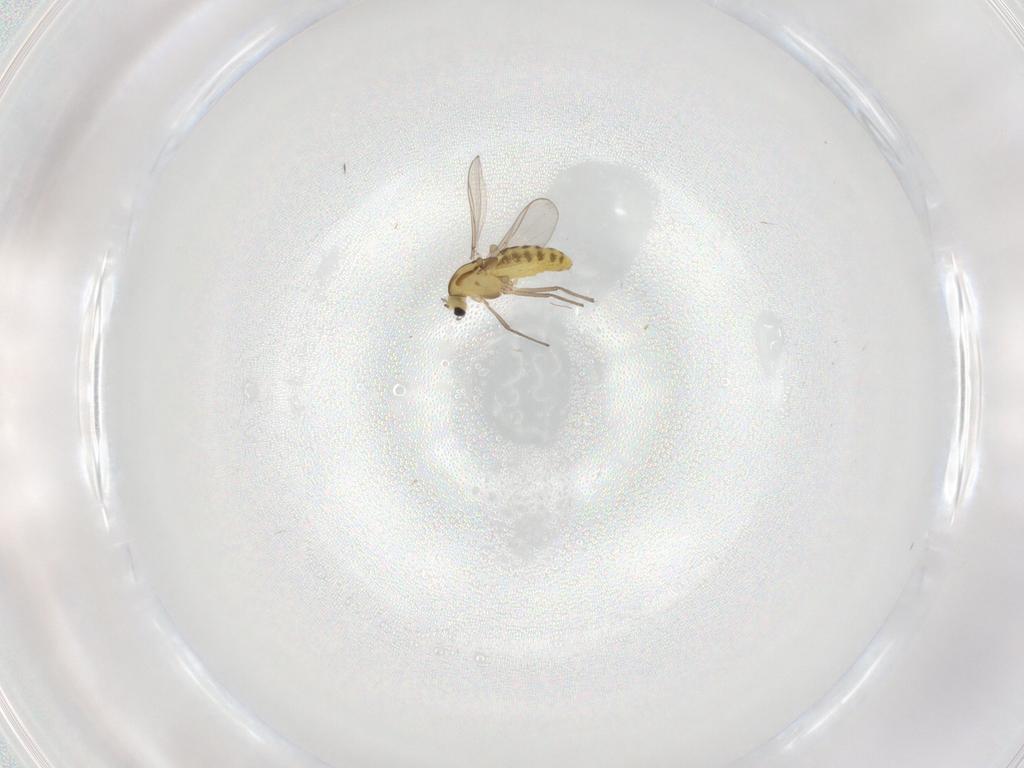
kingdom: Animalia
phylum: Arthropoda
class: Insecta
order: Diptera
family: Chironomidae
